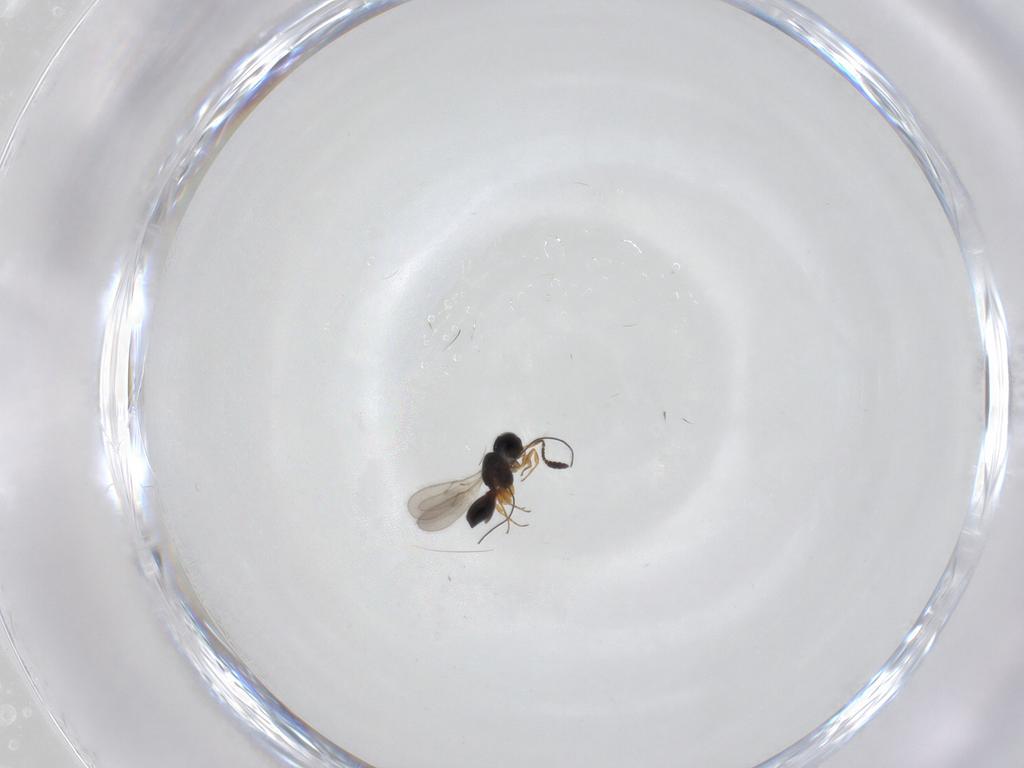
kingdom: Animalia
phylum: Arthropoda
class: Insecta
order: Hymenoptera
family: Scelionidae
